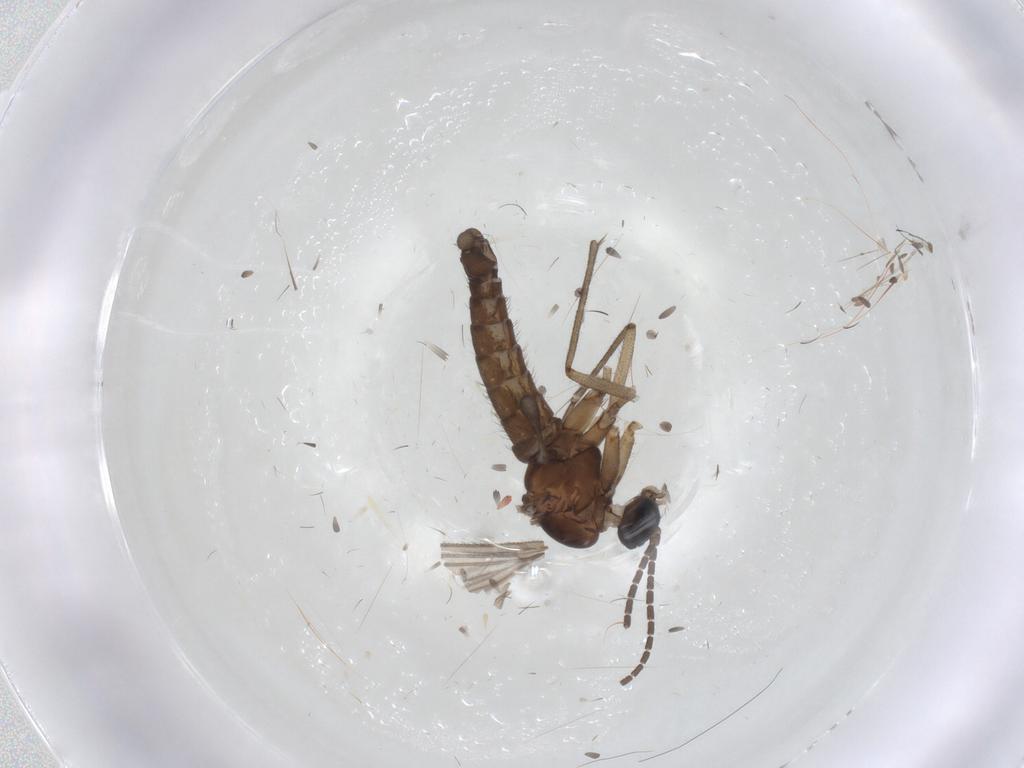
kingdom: Animalia
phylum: Arthropoda
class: Insecta
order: Diptera
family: Sciaridae
